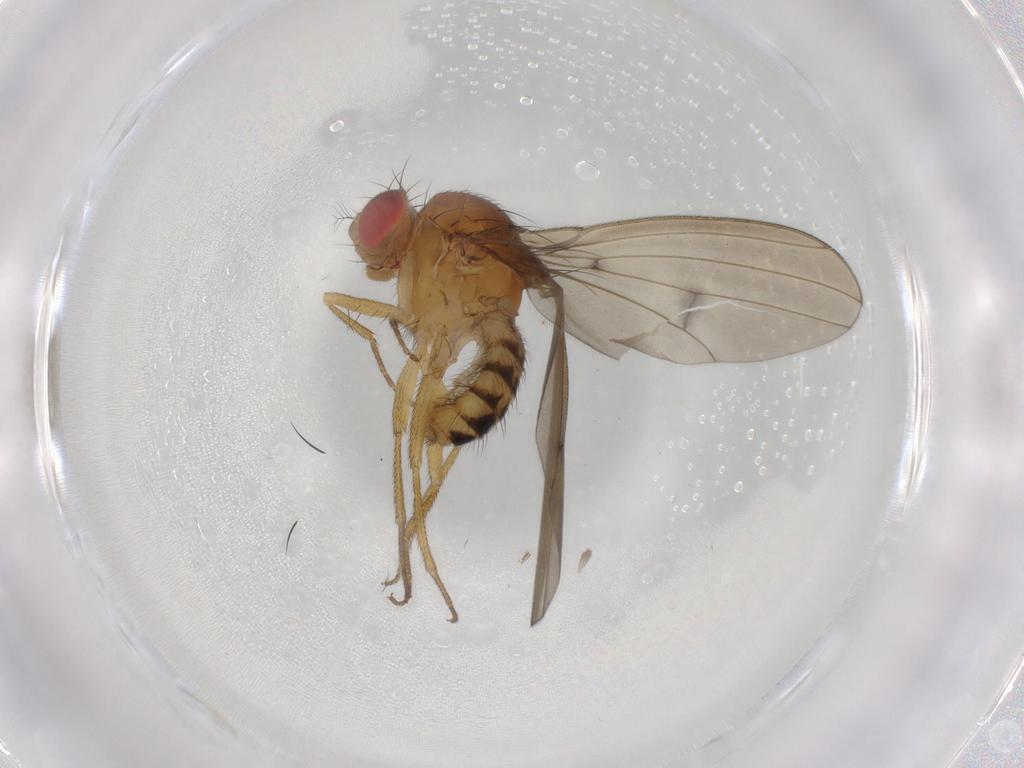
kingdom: Animalia
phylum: Arthropoda
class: Insecta
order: Diptera
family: Drosophilidae
